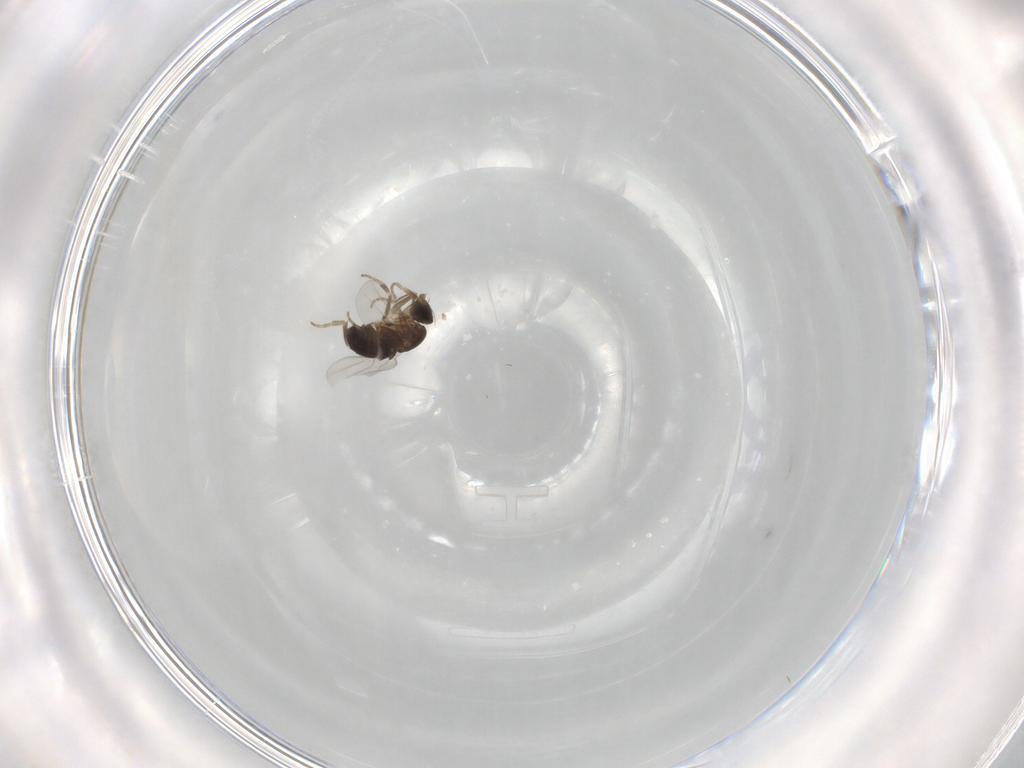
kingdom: Animalia
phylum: Arthropoda
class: Insecta
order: Diptera
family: Phoridae
